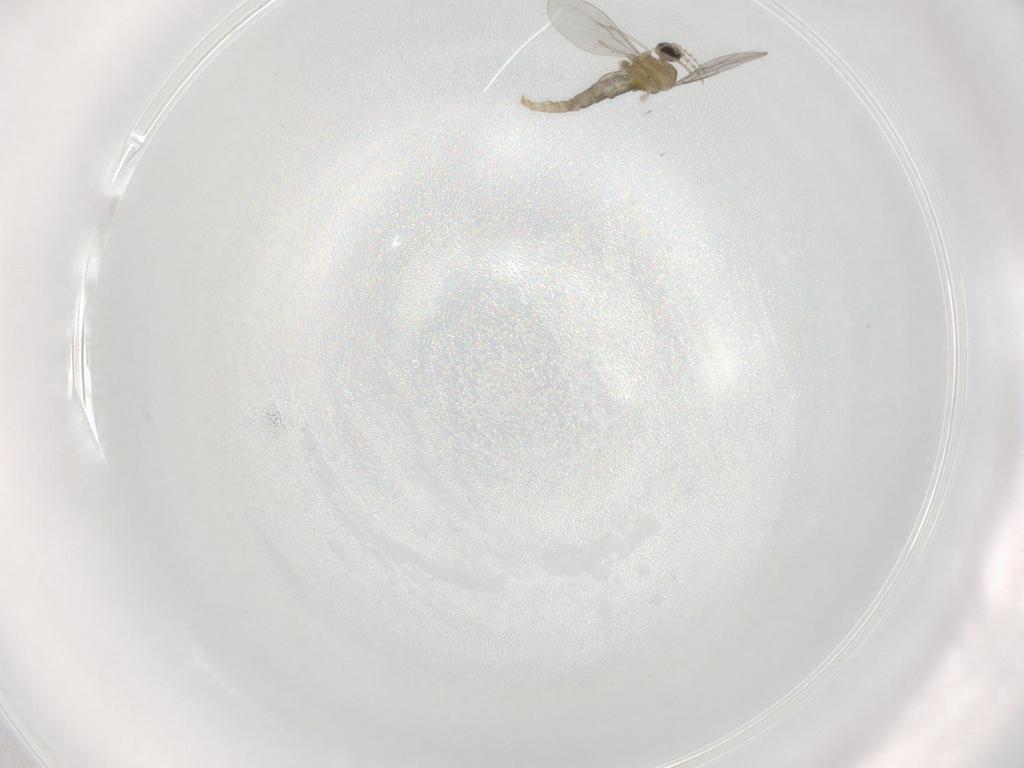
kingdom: Animalia
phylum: Arthropoda
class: Insecta
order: Diptera
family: Cecidomyiidae
